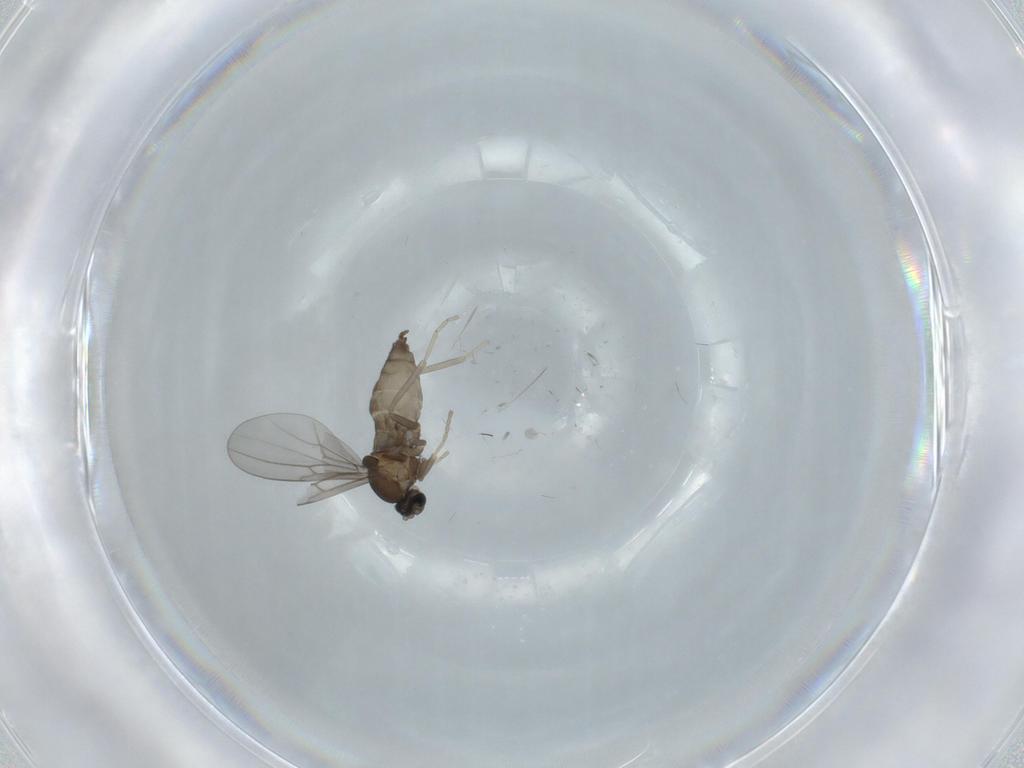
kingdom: Animalia
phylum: Arthropoda
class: Insecta
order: Diptera
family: Cecidomyiidae
